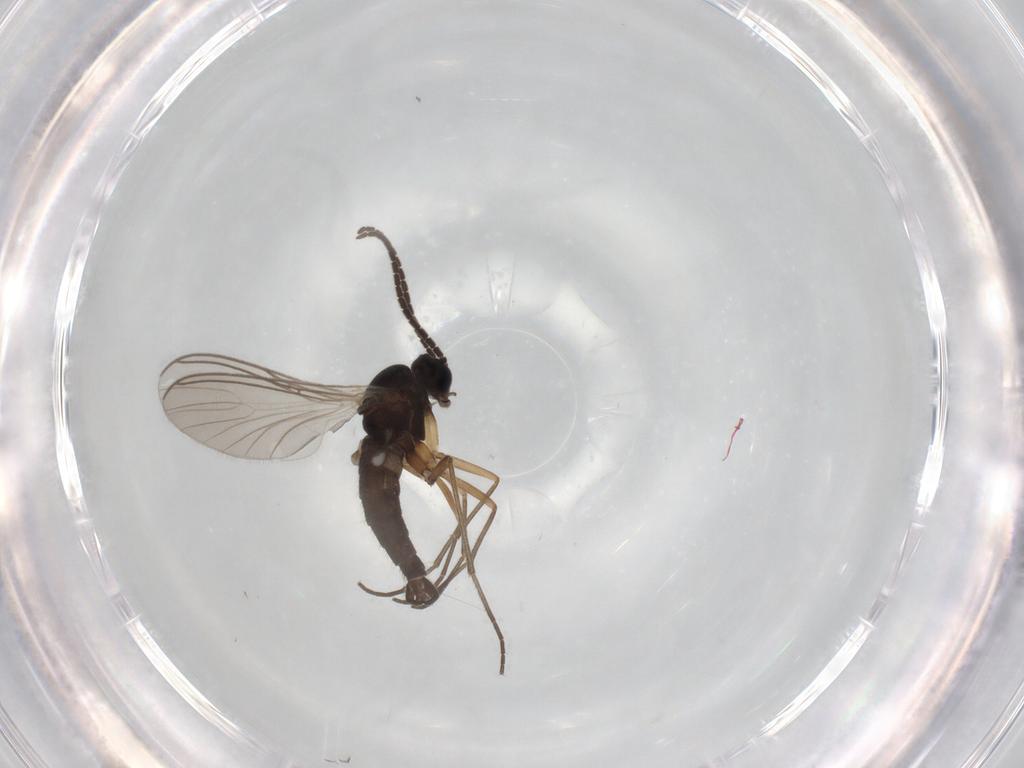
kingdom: Animalia
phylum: Arthropoda
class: Insecta
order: Diptera
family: Sciaridae
